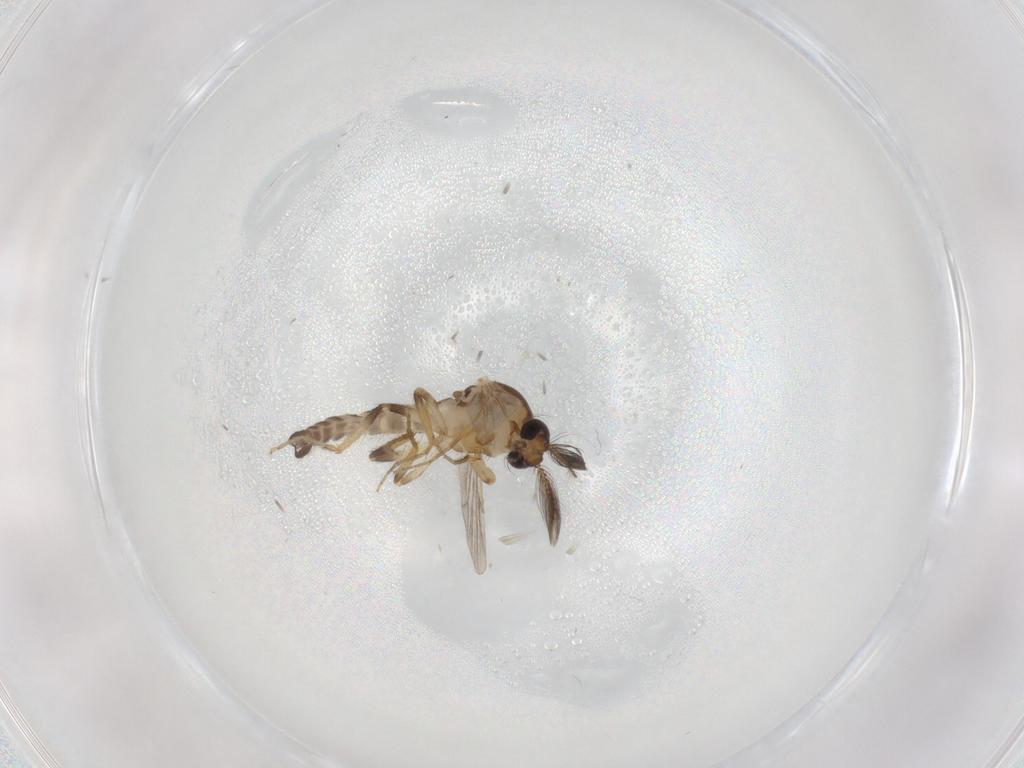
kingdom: Animalia
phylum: Arthropoda
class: Insecta
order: Diptera
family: Ceratopogonidae
